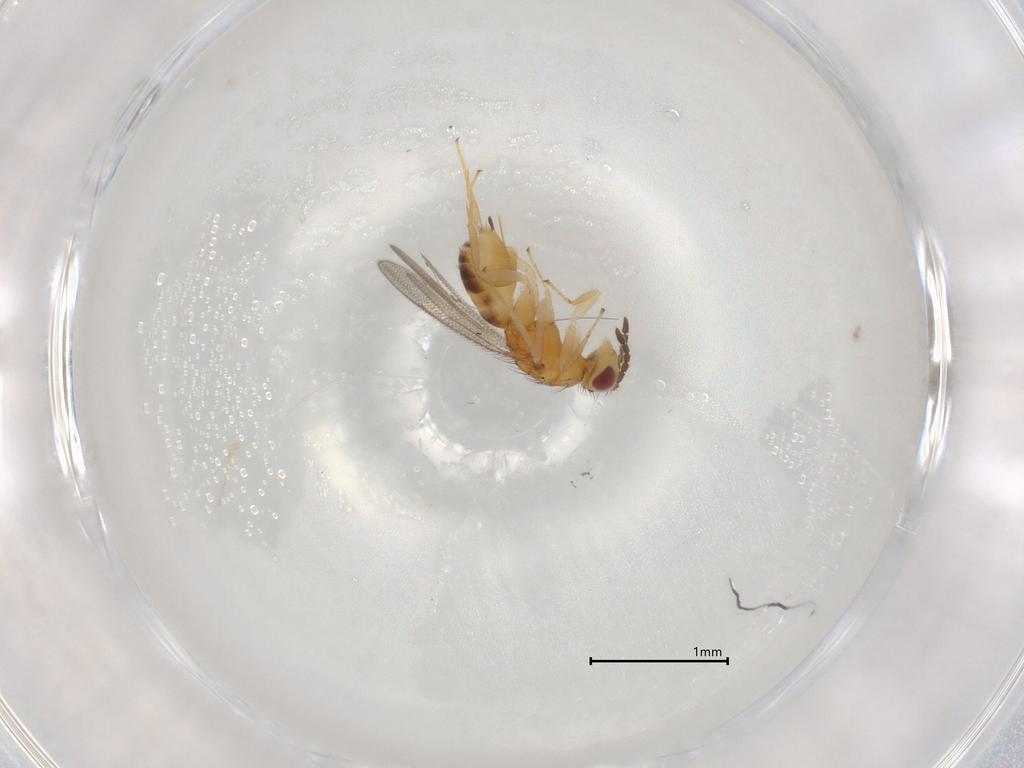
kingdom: Animalia
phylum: Arthropoda
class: Insecta
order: Hymenoptera
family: Eulophidae
